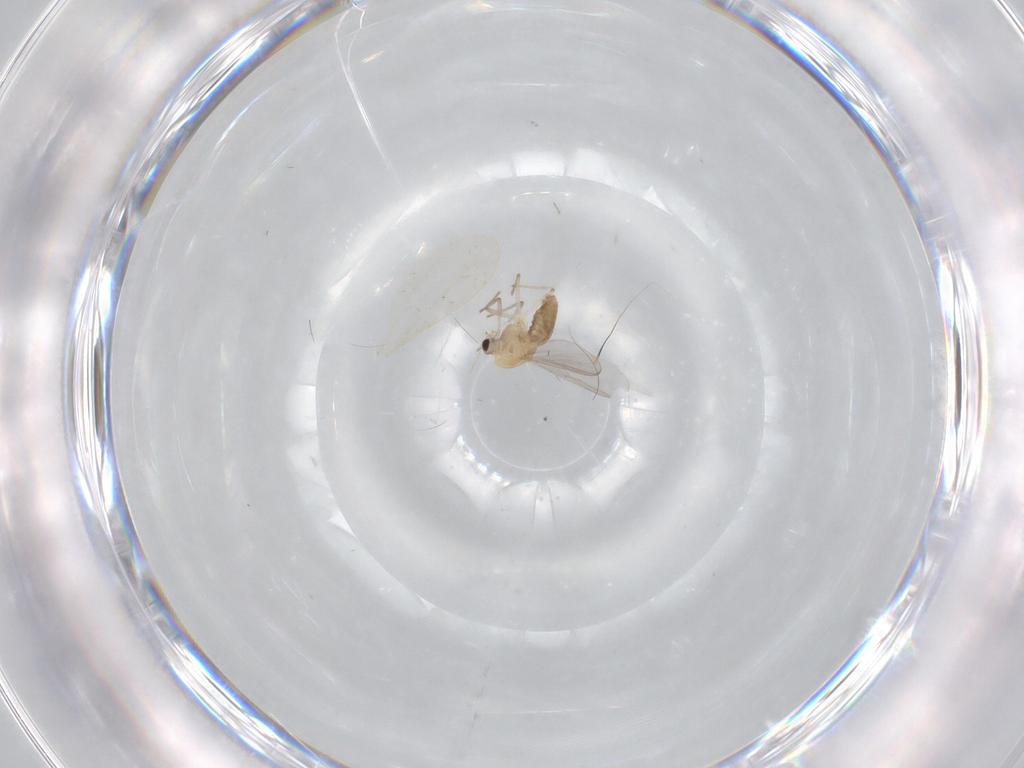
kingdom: Animalia
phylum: Arthropoda
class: Insecta
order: Diptera
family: Chironomidae
